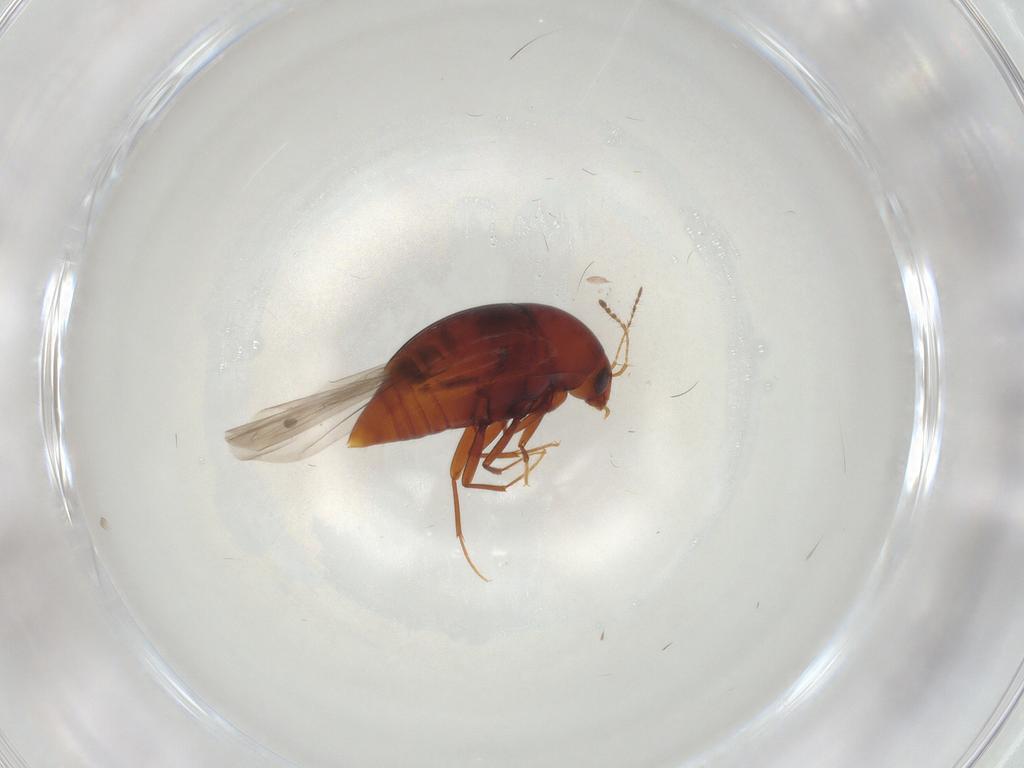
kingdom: Animalia
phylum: Arthropoda
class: Insecta
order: Coleoptera
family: Staphylinidae
